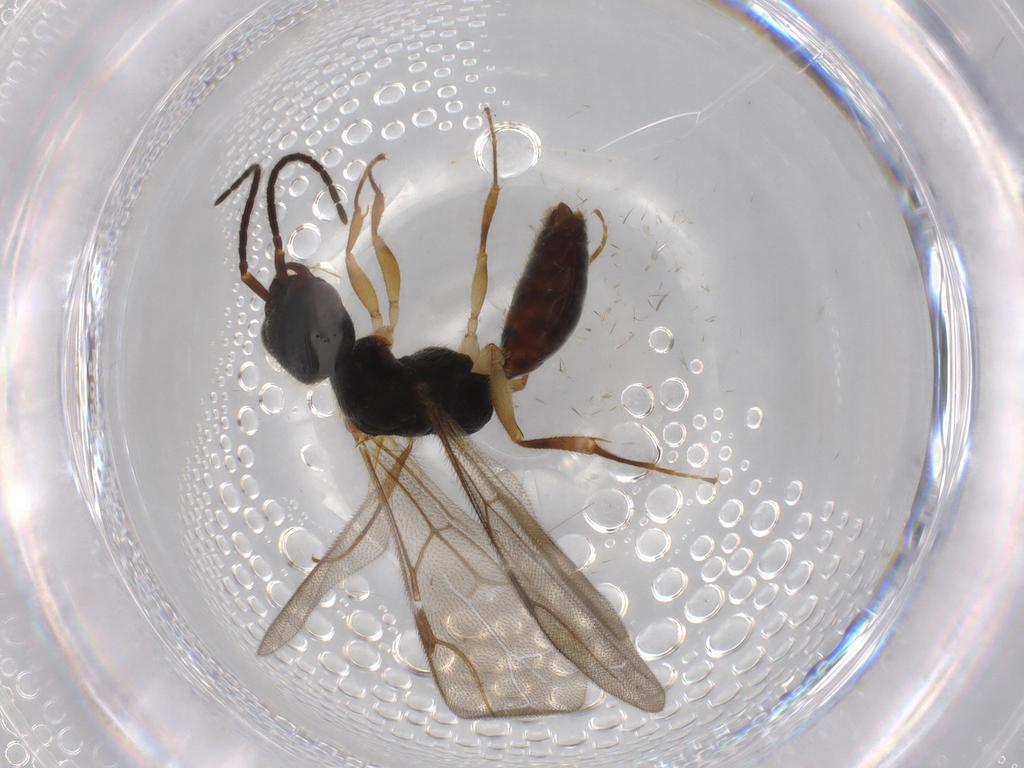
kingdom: Animalia
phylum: Arthropoda
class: Insecta
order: Hymenoptera
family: Bethylidae
